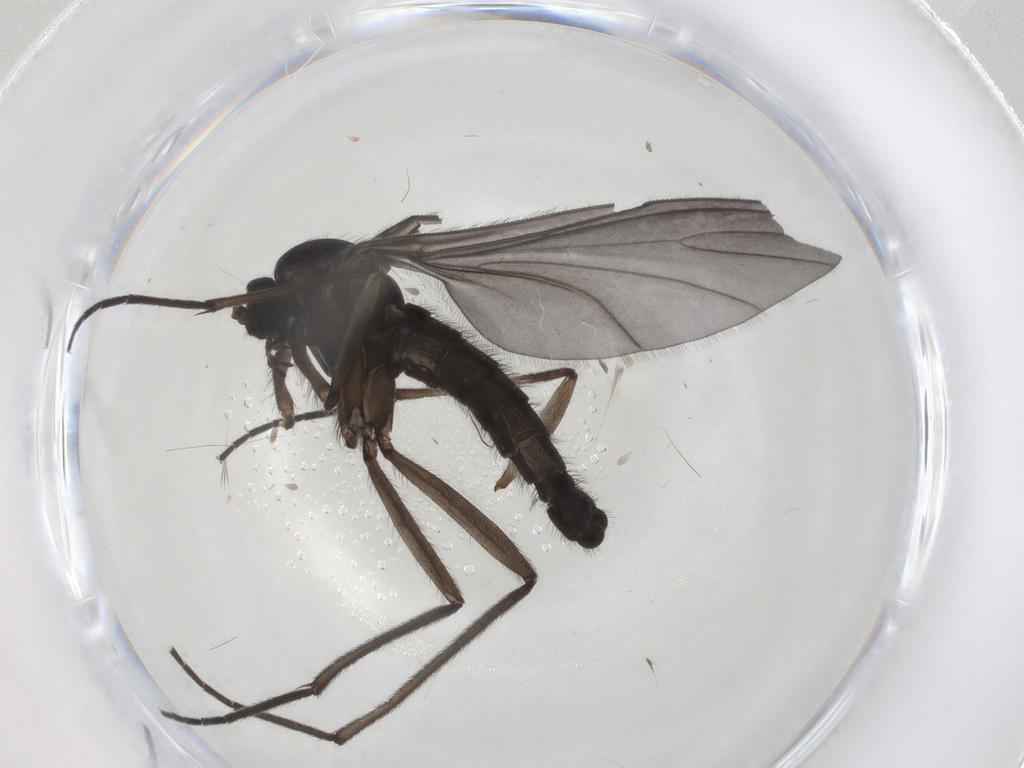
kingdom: Animalia
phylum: Arthropoda
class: Insecta
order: Diptera
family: Sciaridae
